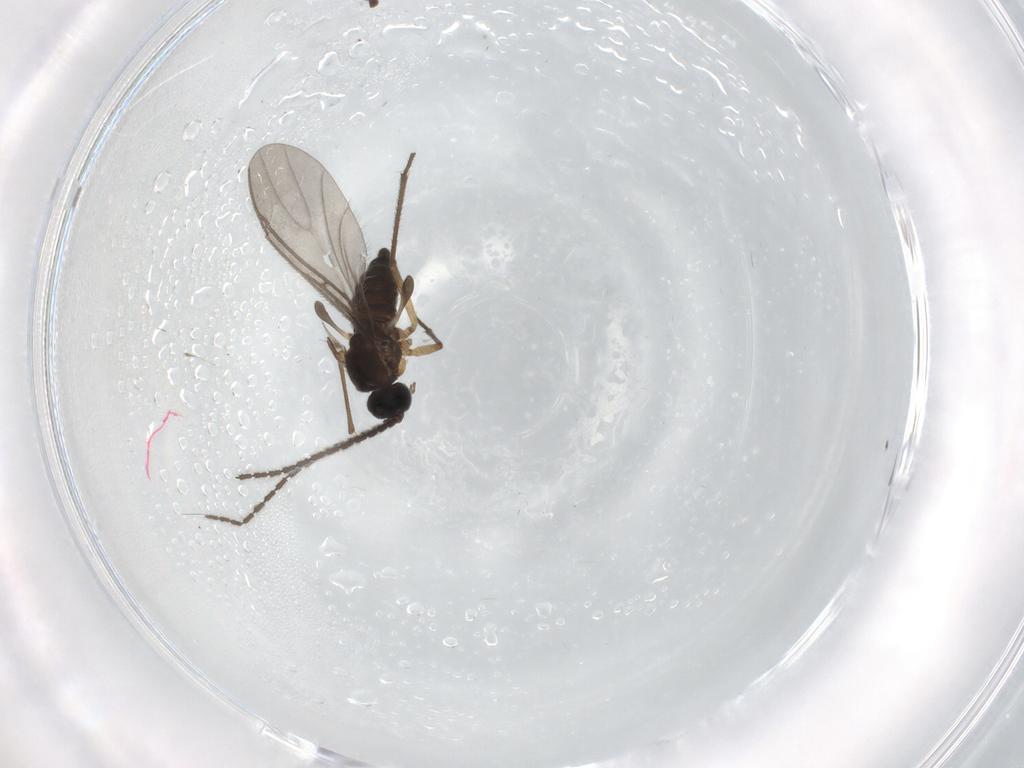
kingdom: Animalia
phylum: Arthropoda
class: Insecta
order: Diptera
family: Sciaridae
